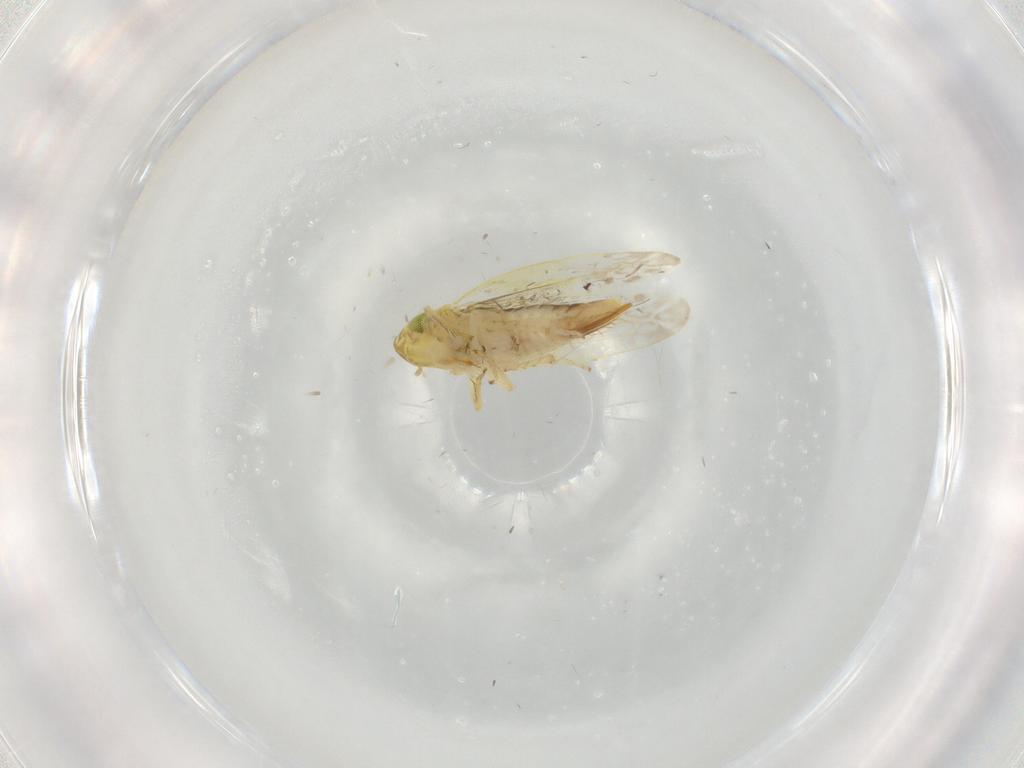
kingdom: Animalia
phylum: Arthropoda
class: Insecta
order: Hemiptera
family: Cicadellidae
